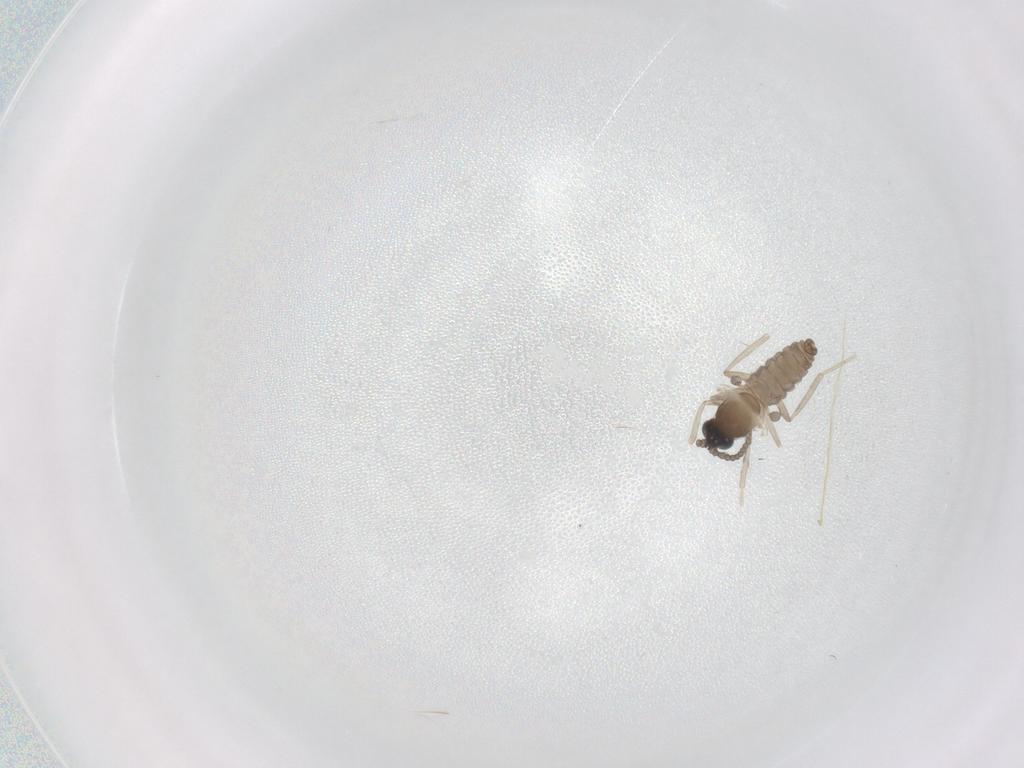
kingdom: Animalia
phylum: Arthropoda
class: Insecta
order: Diptera
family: Cecidomyiidae
